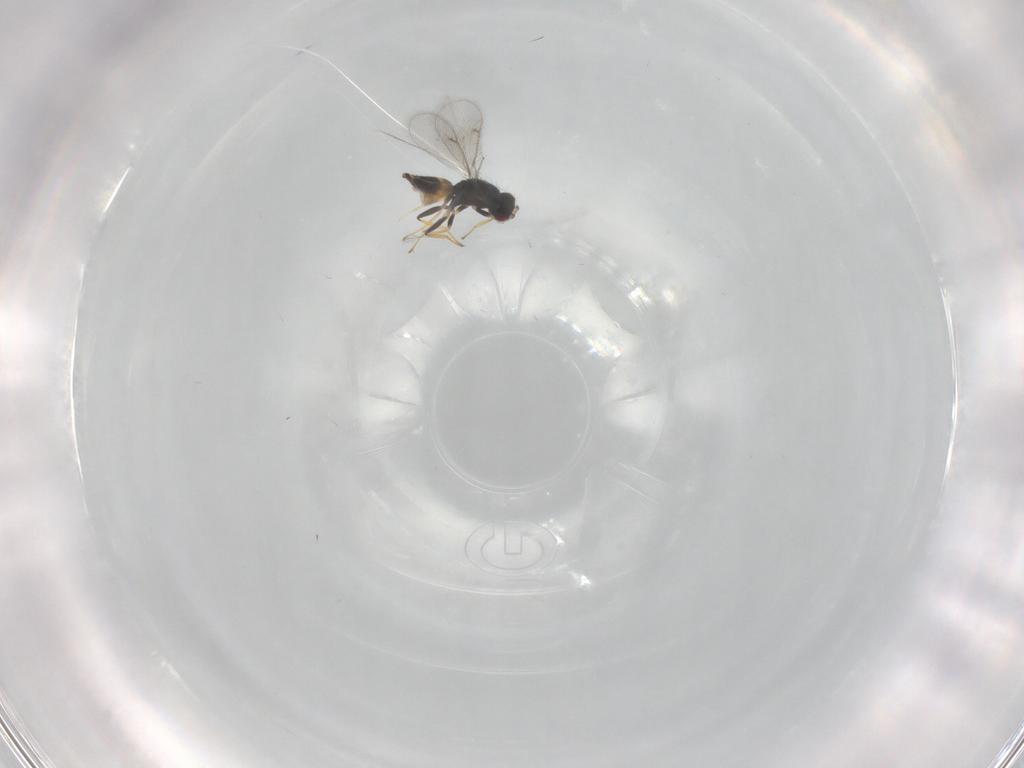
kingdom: Animalia
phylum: Arthropoda
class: Insecta
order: Hymenoptera
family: Eulophidae
